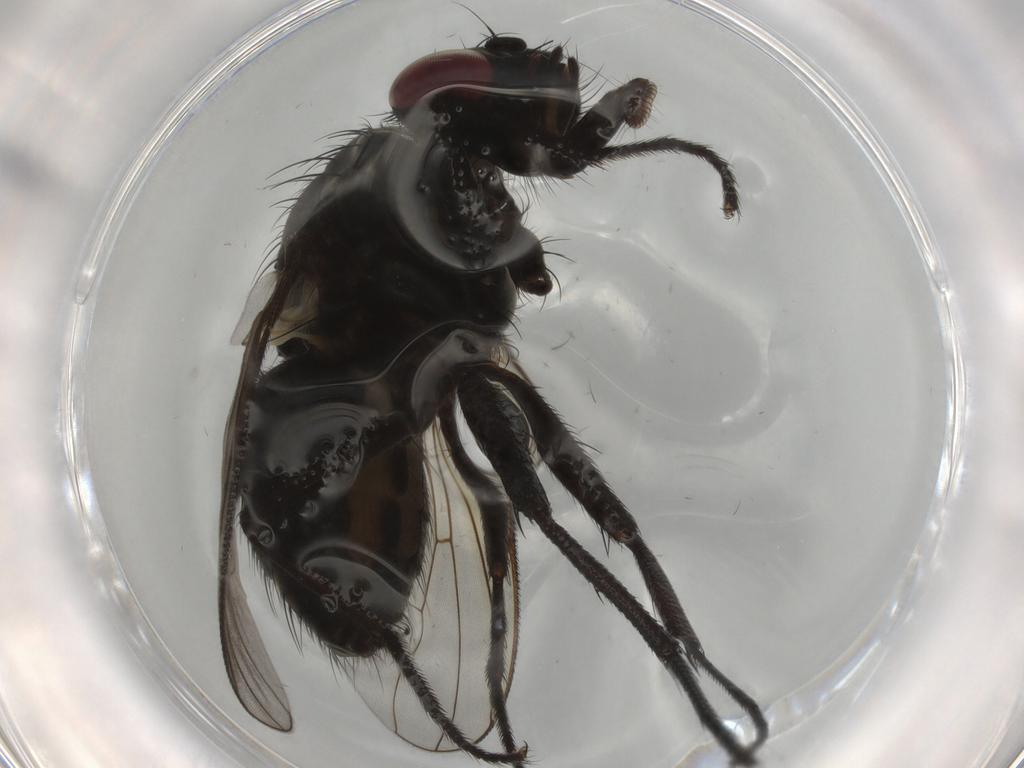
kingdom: Animalia
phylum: Arthropoda
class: Insecta
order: Diptera
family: Muscidae
